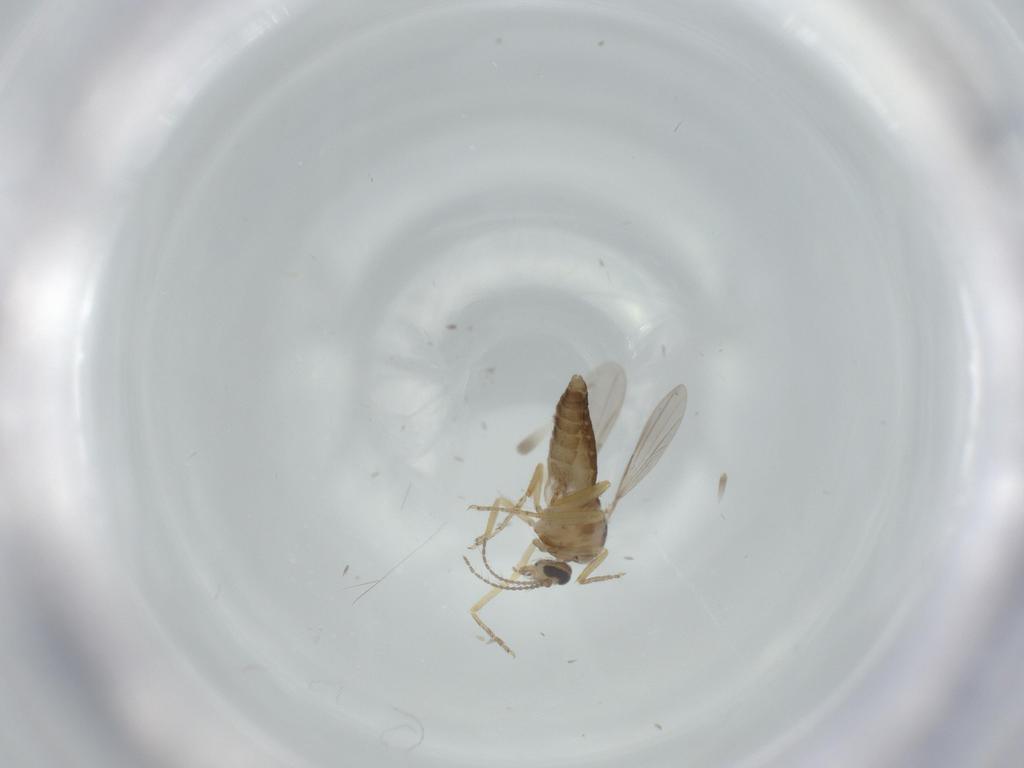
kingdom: Animalia
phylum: Arthropoda
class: Insecta
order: Diptera
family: Ceratopogonidae
